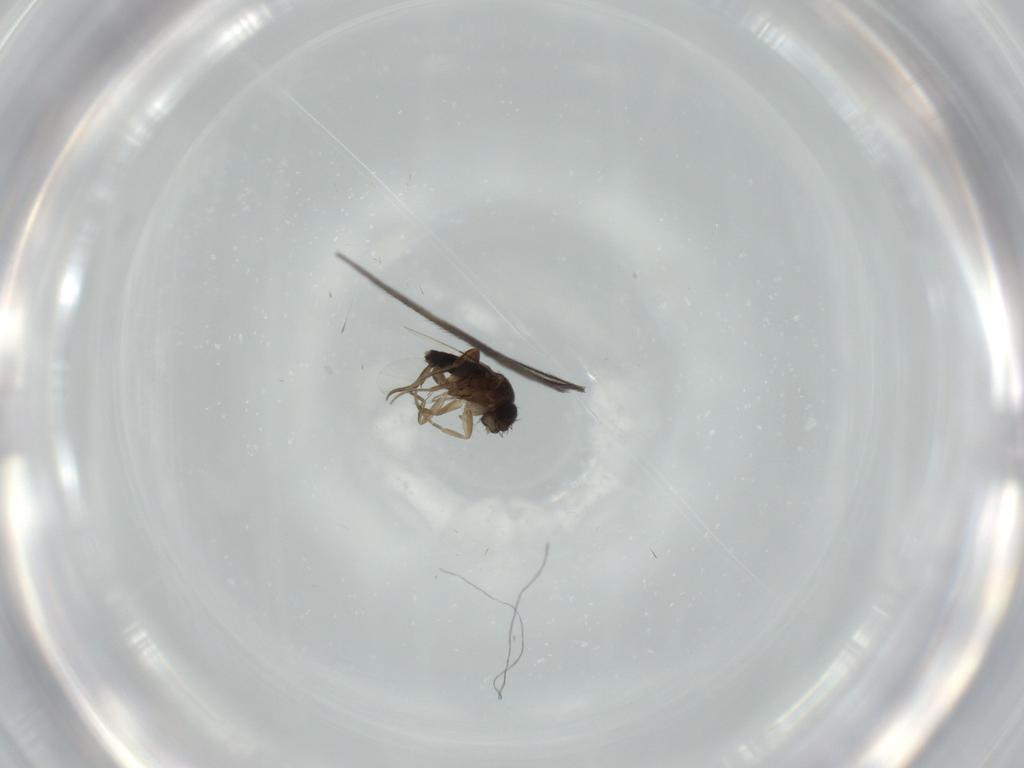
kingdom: Animalia
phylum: Arthropoda
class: Insecta
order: Diptera
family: Phoridae
